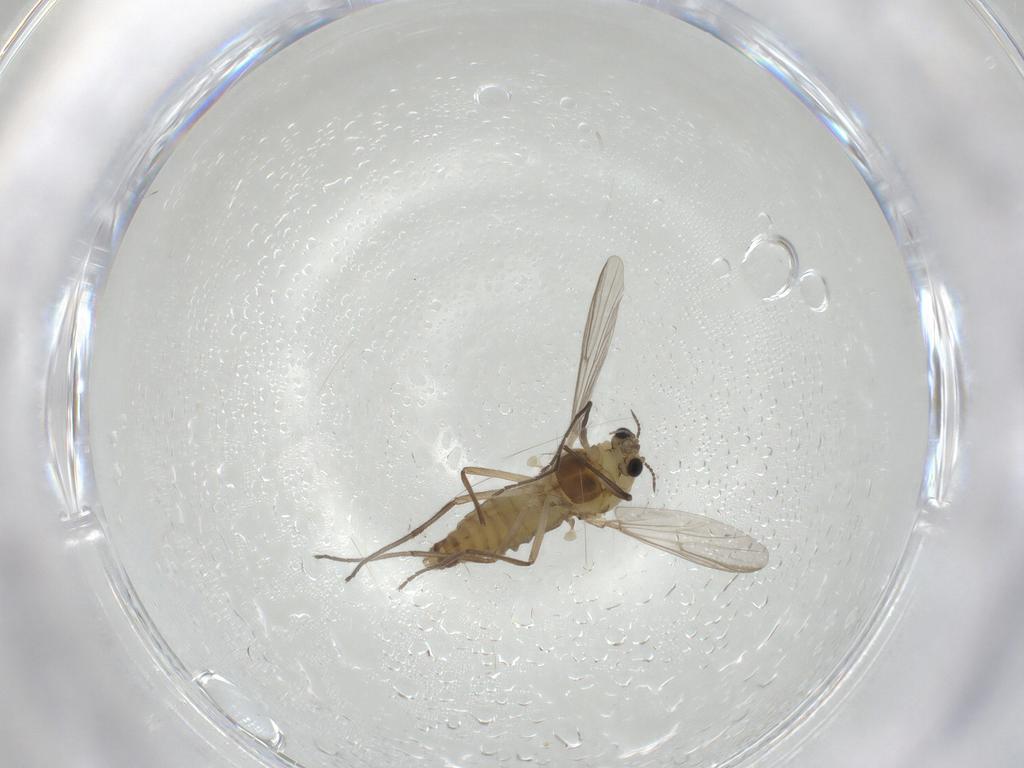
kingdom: Animalia
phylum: Arthropoda
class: Insecta
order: Diptera
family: Chironomidae
